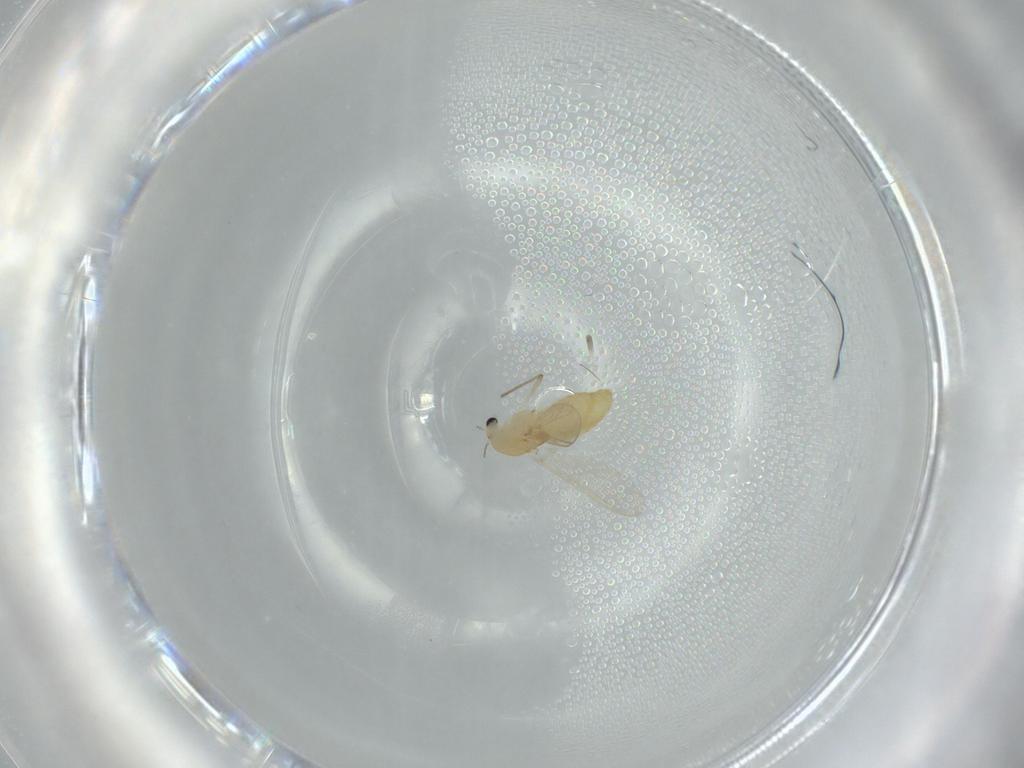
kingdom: Animalia
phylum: Arthropoda
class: Insecta
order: Diptera
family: Chironomidae
